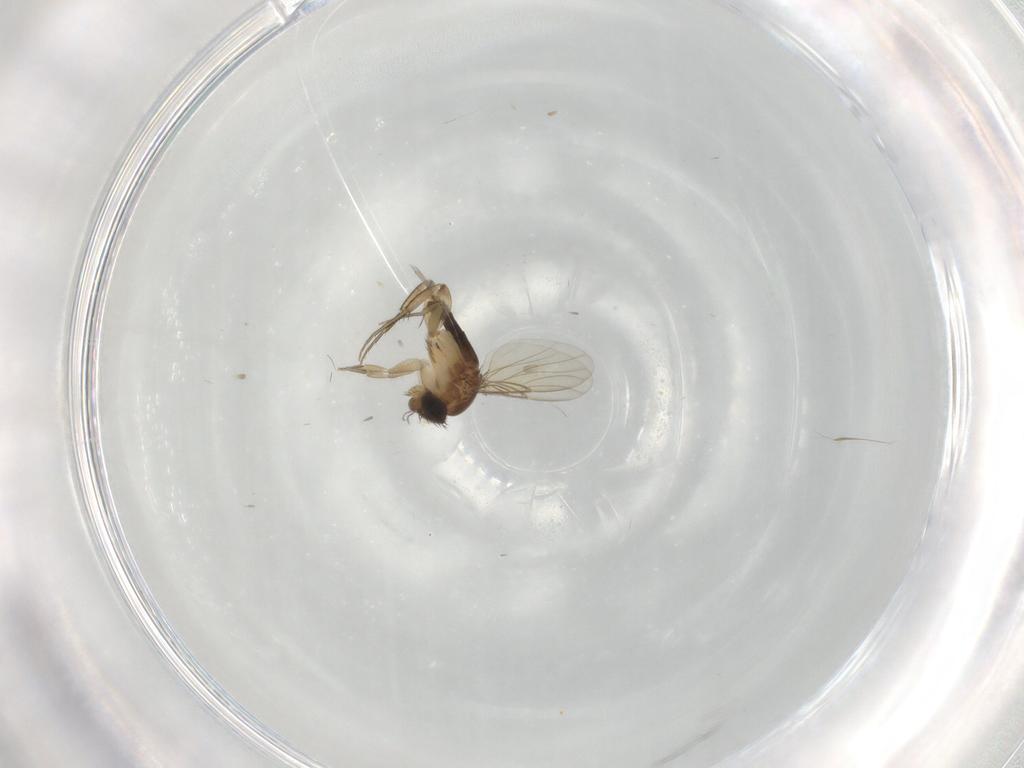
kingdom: Animalia
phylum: Arthropoda
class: Insecta
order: Diptera
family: Phoridae
